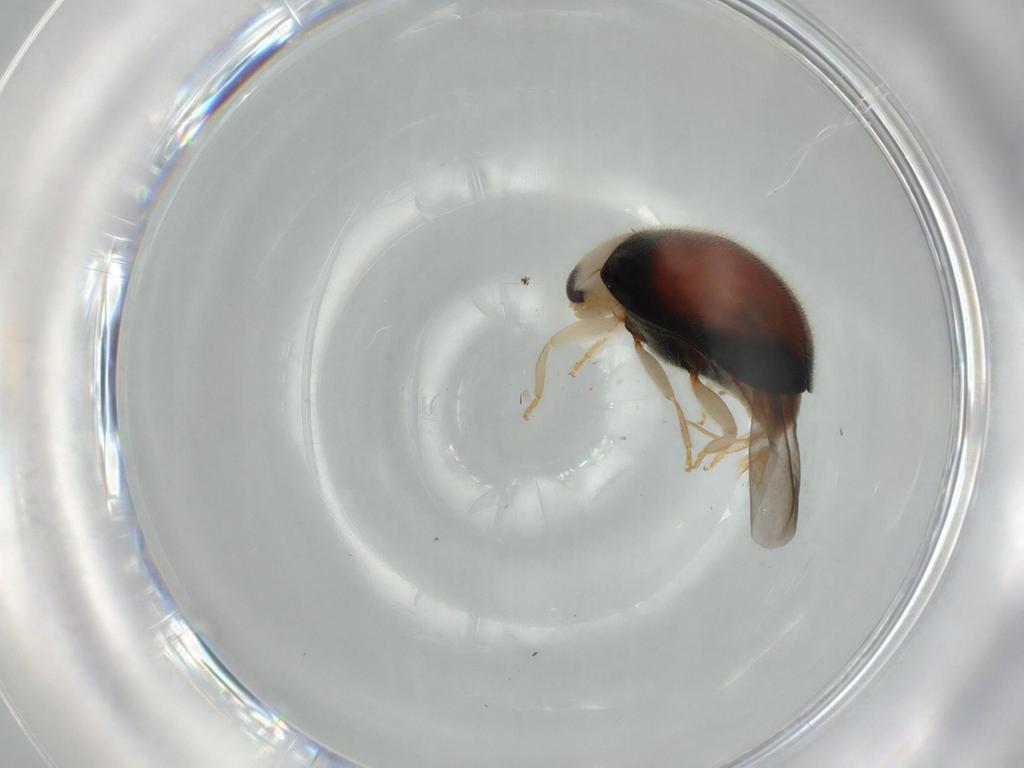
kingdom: Animalia
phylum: Arthropoda
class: Insecta
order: Coleoptera
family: Coccinellidae
